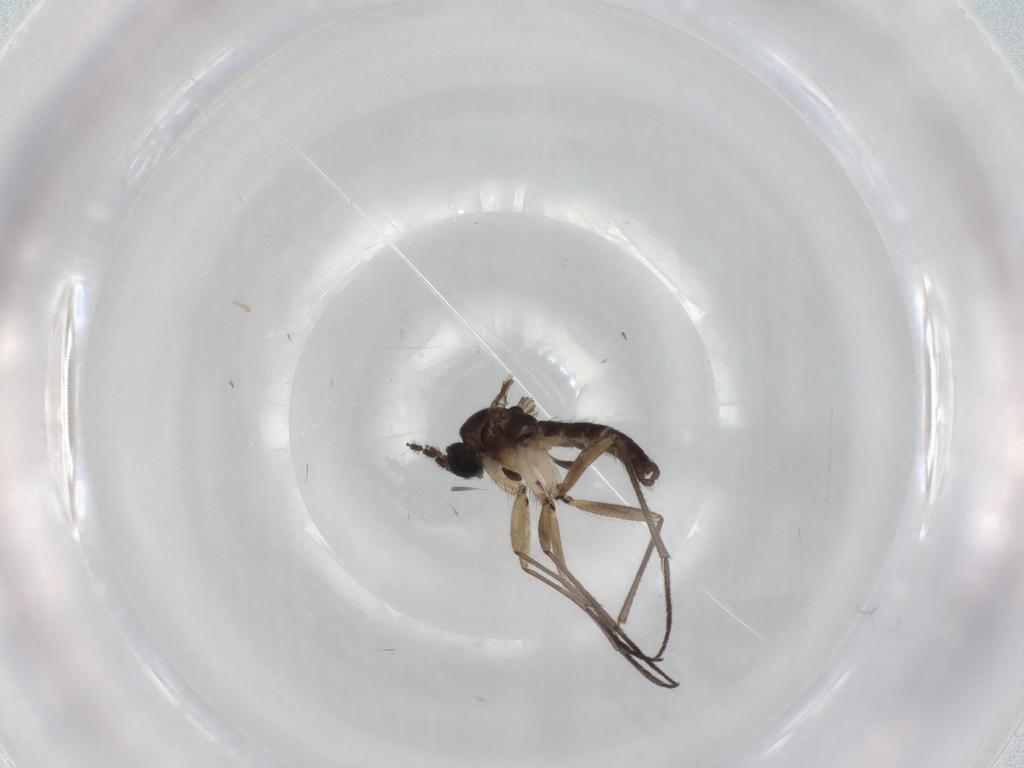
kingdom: Animalia
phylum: Arthropoda
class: Insecta
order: Diptera
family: Sciaridae
